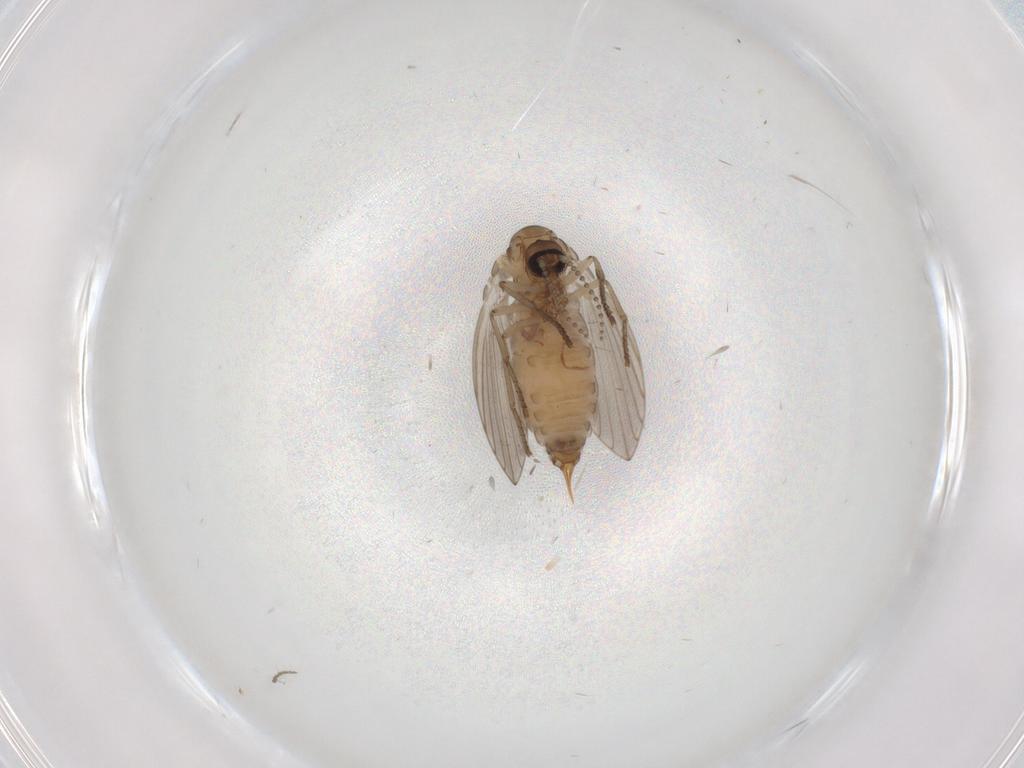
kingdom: Animalia
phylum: Arthropoda
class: Insecta
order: Diptera
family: Psychodidae
